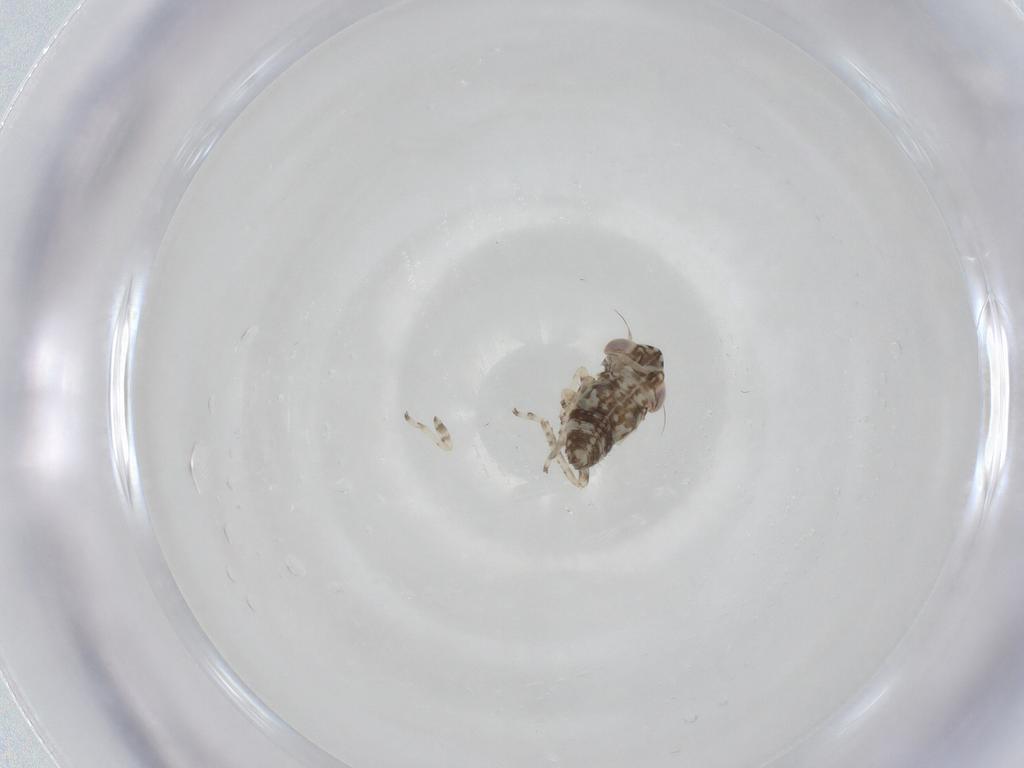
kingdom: Animalia
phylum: Arthropoda
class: Insecta
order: Hemiptera
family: Cicadellidae
